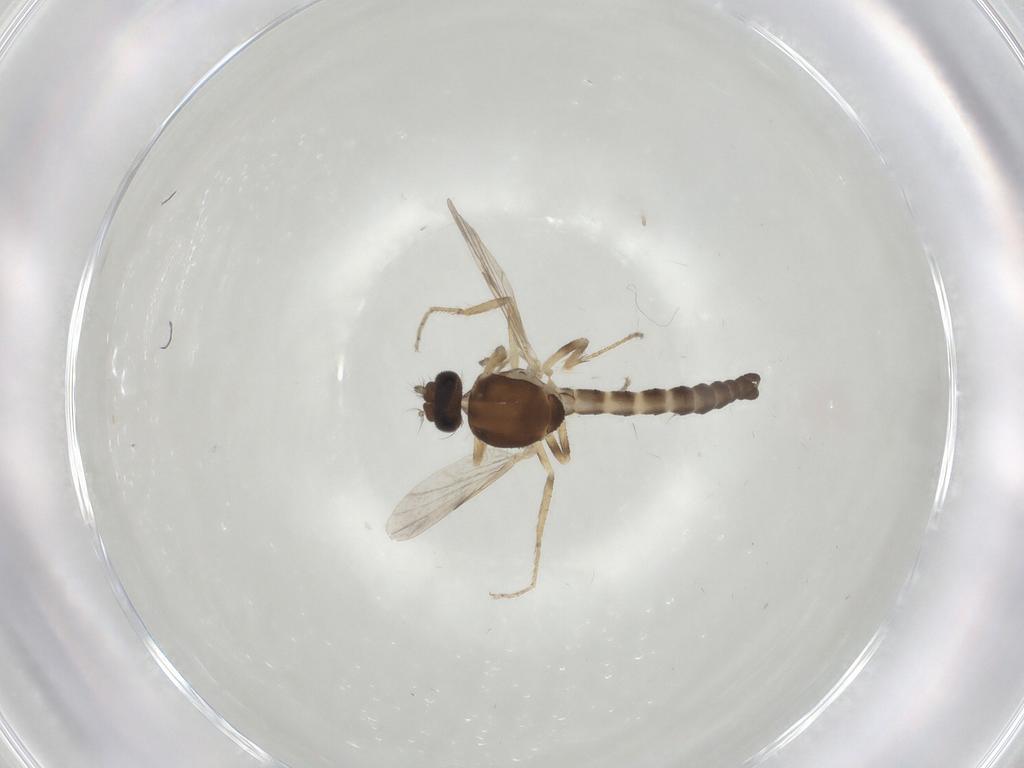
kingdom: Animalia
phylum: Arthropoda
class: Insecta
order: Diptera
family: Ceratopogonidae
